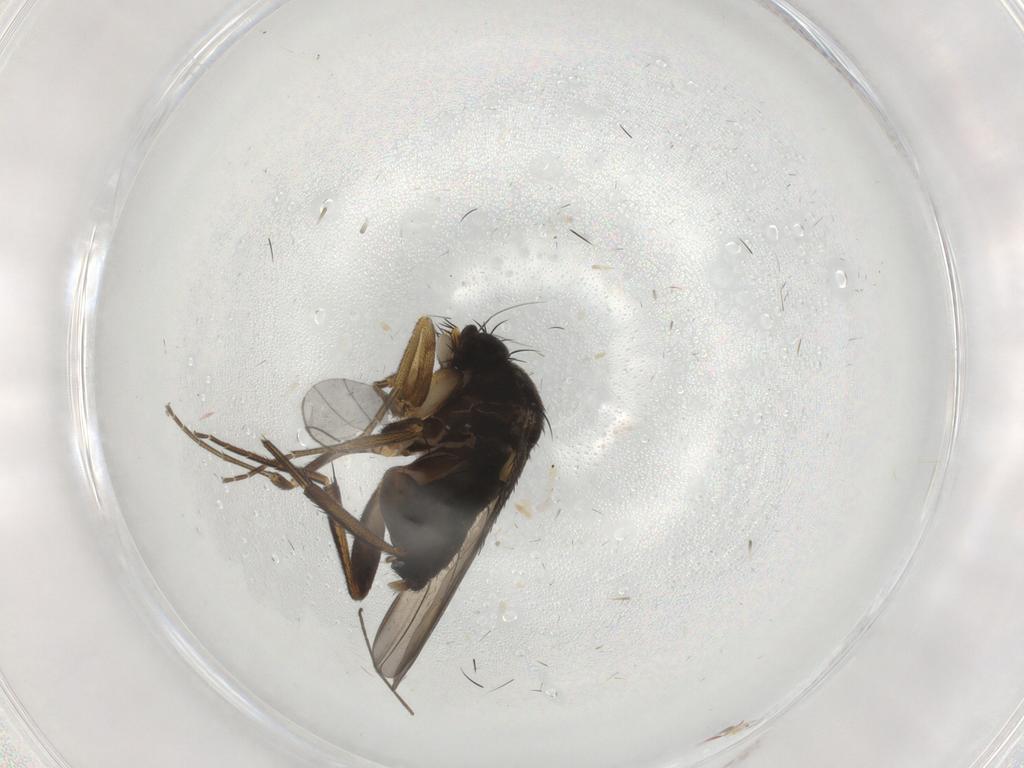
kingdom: Animalia
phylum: Arthropoda
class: Insecta
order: Diptera
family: Phoridae
